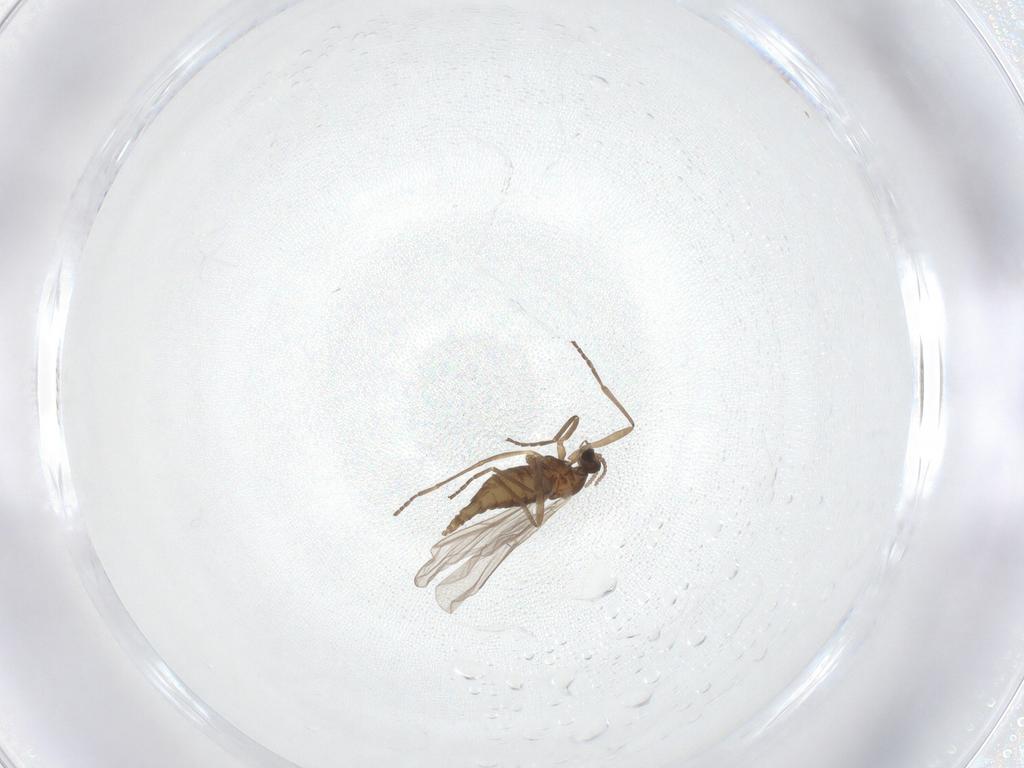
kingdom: Animalia
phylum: Arthropoda
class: Insecta
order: Diptera
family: Cecidomyiidae
